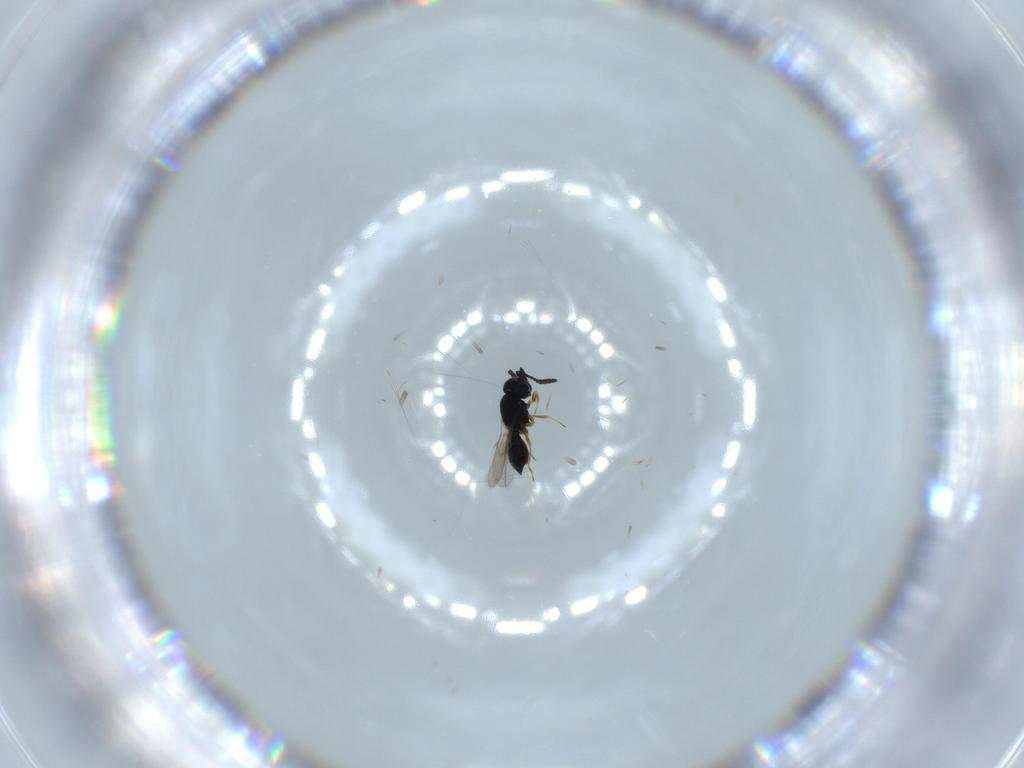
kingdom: Animalia
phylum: Arthropoda
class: Insecta
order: Hymenoptera
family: Scelionidae
